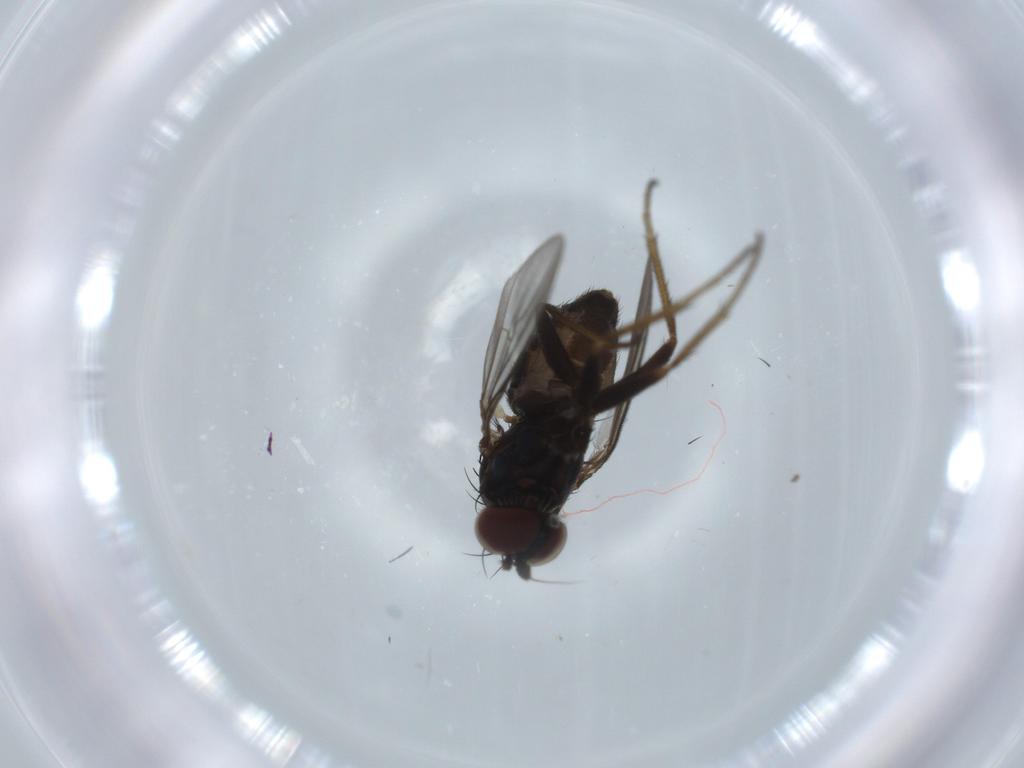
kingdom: Animalia
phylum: Arthropoda
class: Insecta
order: Diptera
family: Dolichopodidae
